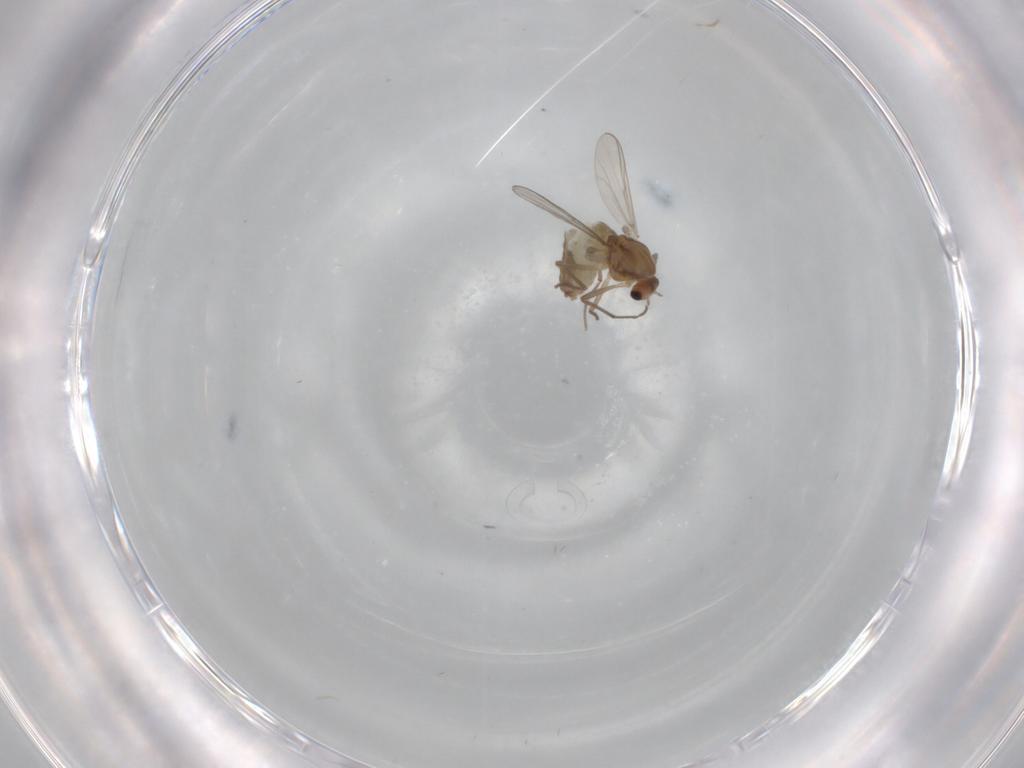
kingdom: Animalia
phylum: Arthropoda
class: Insecta
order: Diptera
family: Chironomidae
